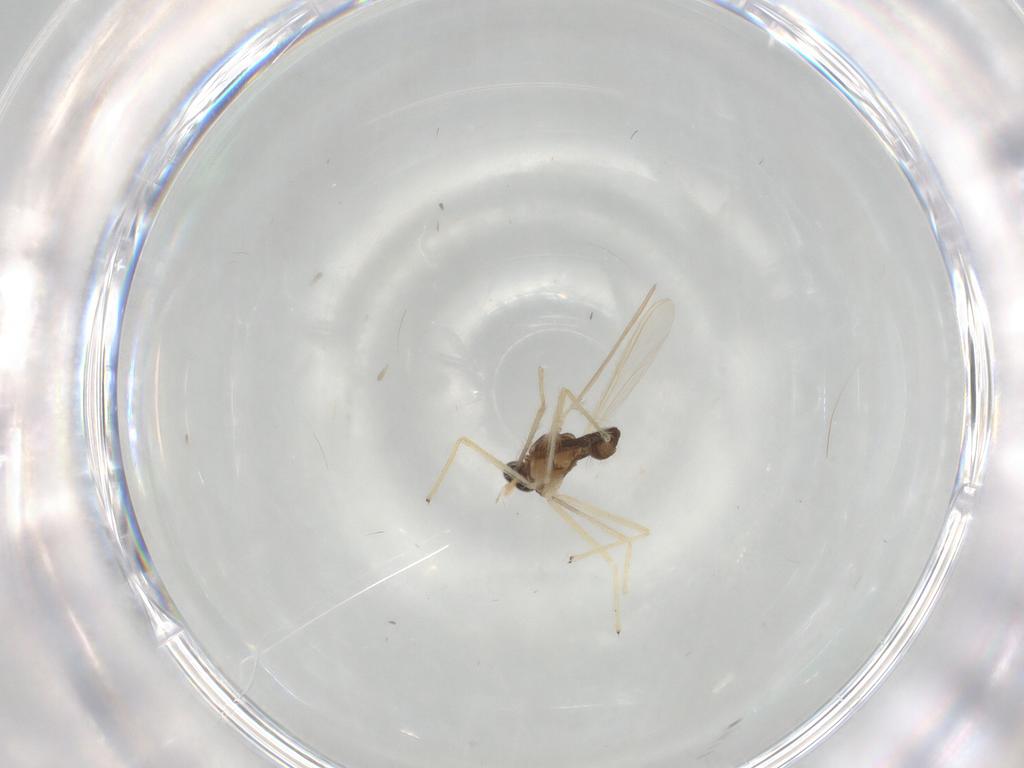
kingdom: Animalia
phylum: Arthropoda
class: Insecta
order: Diptera
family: Chironomidae
